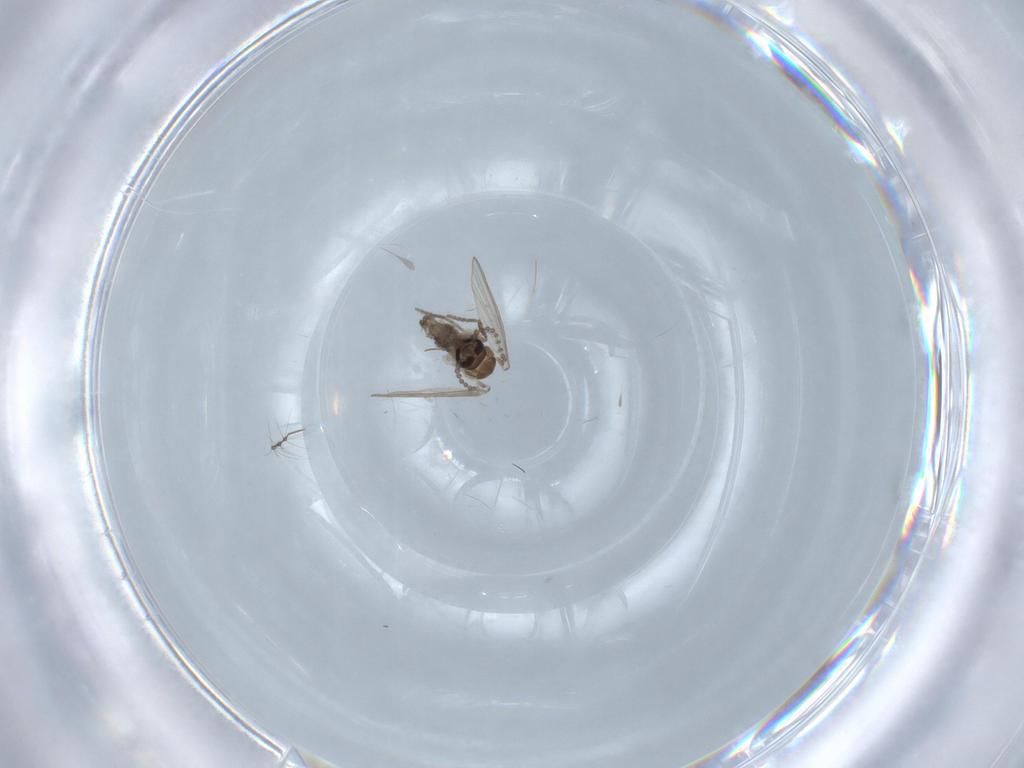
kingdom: Animalia
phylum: Arthropoda
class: Insecta
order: Diptera
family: Psychodidae
